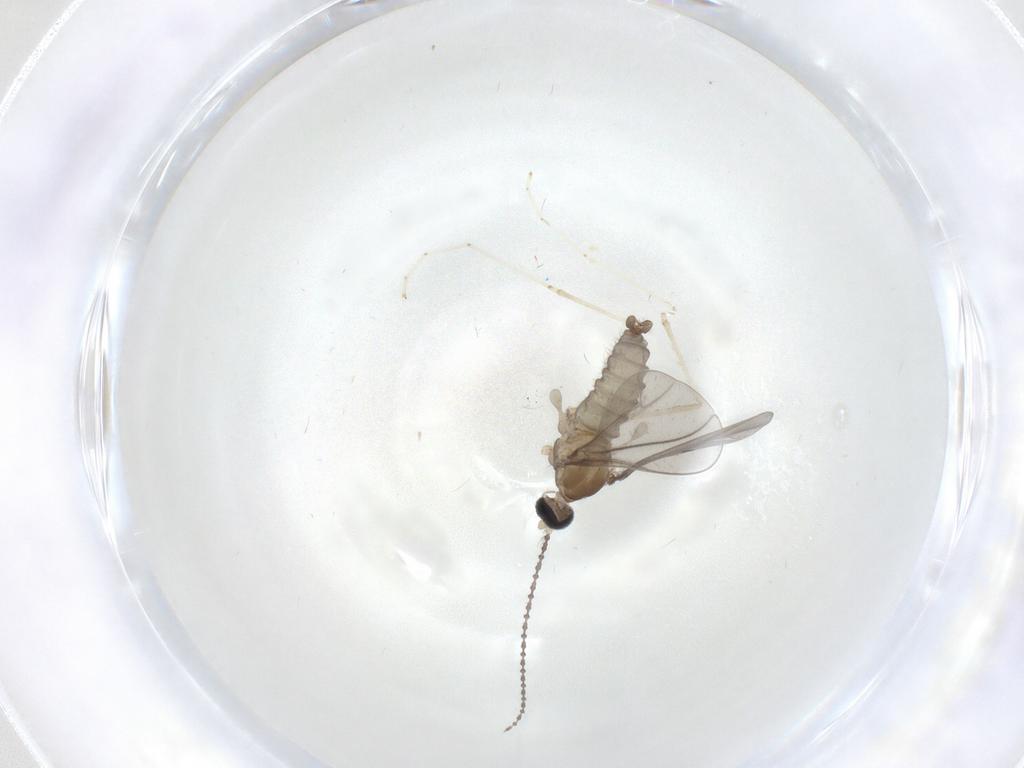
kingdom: Animalia
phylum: Arthropoda
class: Insecta
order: Diptera
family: Cecidomyiidae
